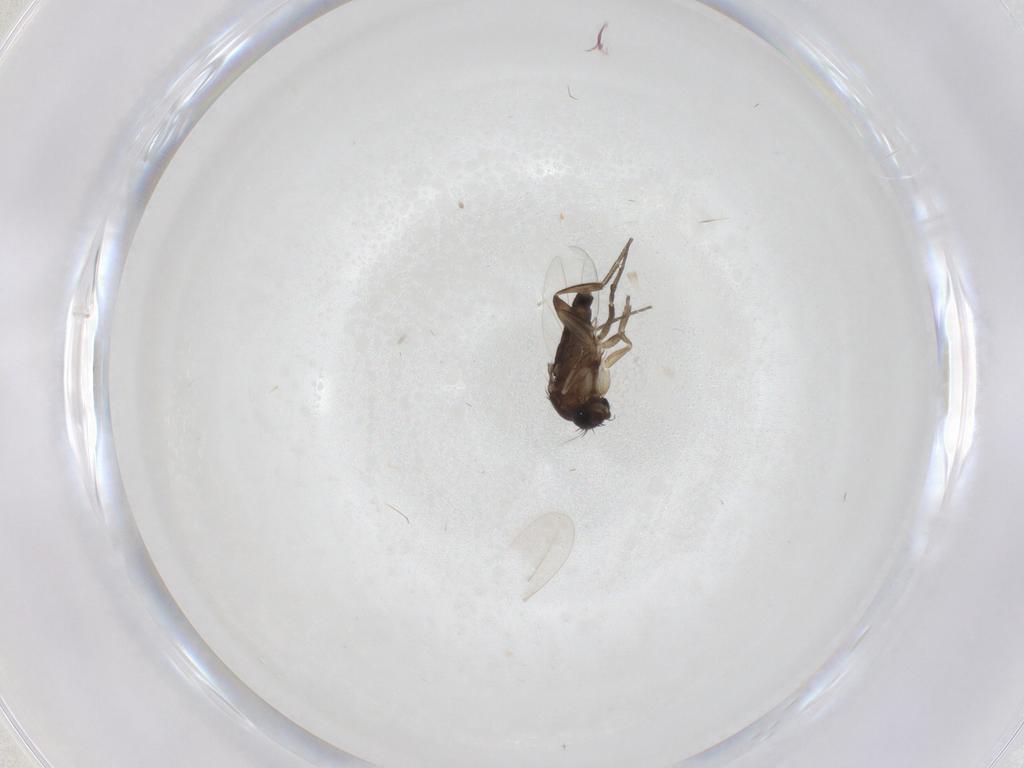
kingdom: Animalia
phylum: Arthropoda
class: Insecta
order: Diptera
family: Phoridae
